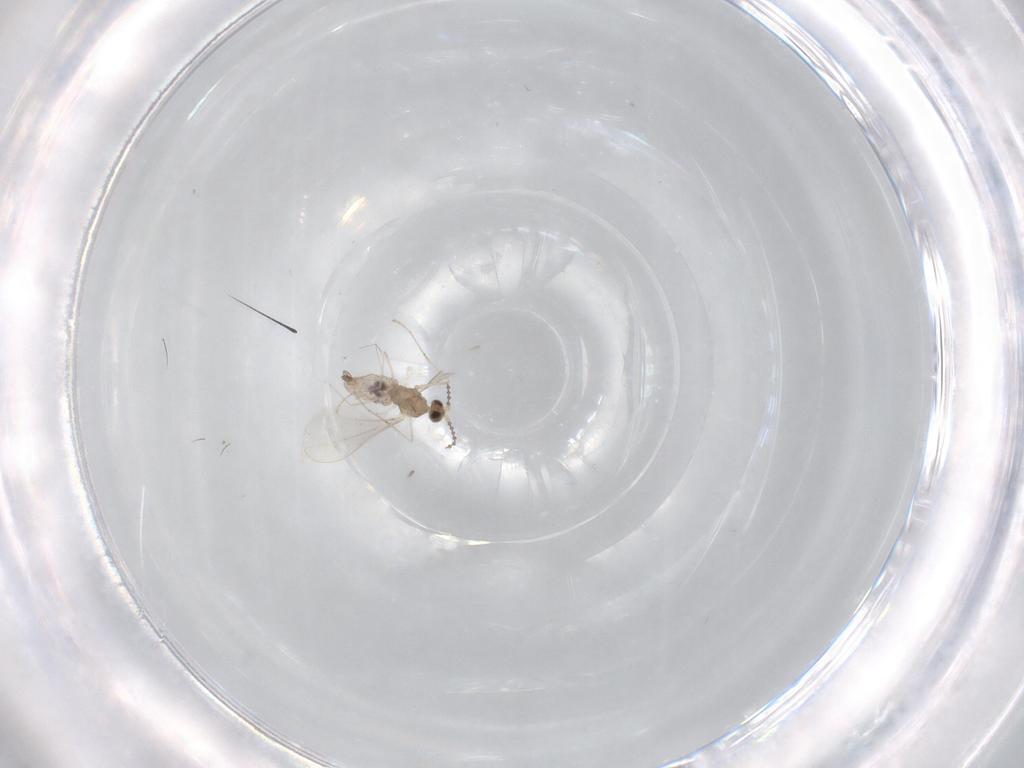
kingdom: Animalia
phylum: Arthropoda
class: Insecta
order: Diptera
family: Cecidomyiidae
